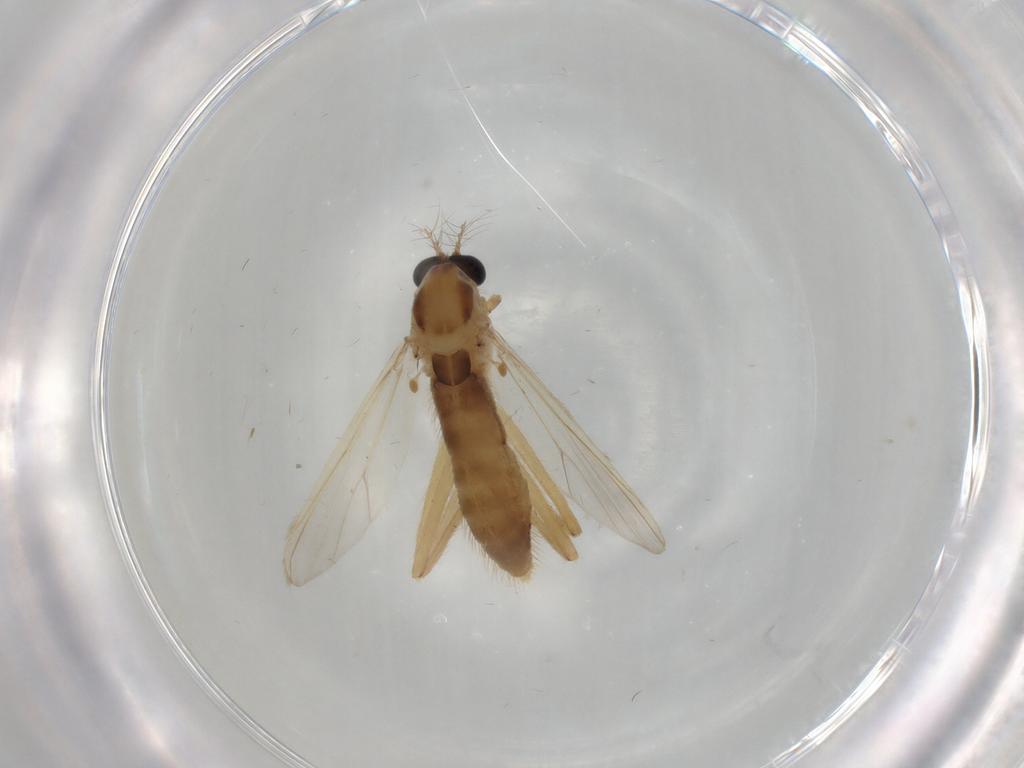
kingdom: Animalia
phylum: Arthropoda
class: Insecta
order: Diptera
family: Chironomidae
